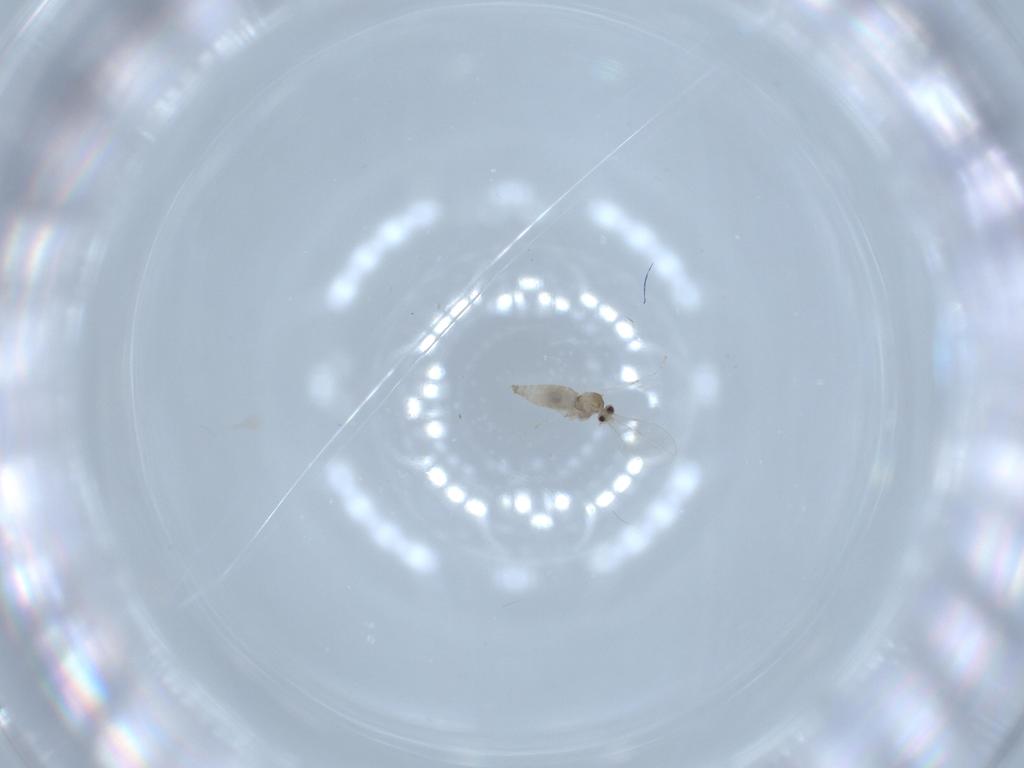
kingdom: Animalia
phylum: Arthropoda
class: Insecta
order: Diptera
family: Cecidomyiidae
